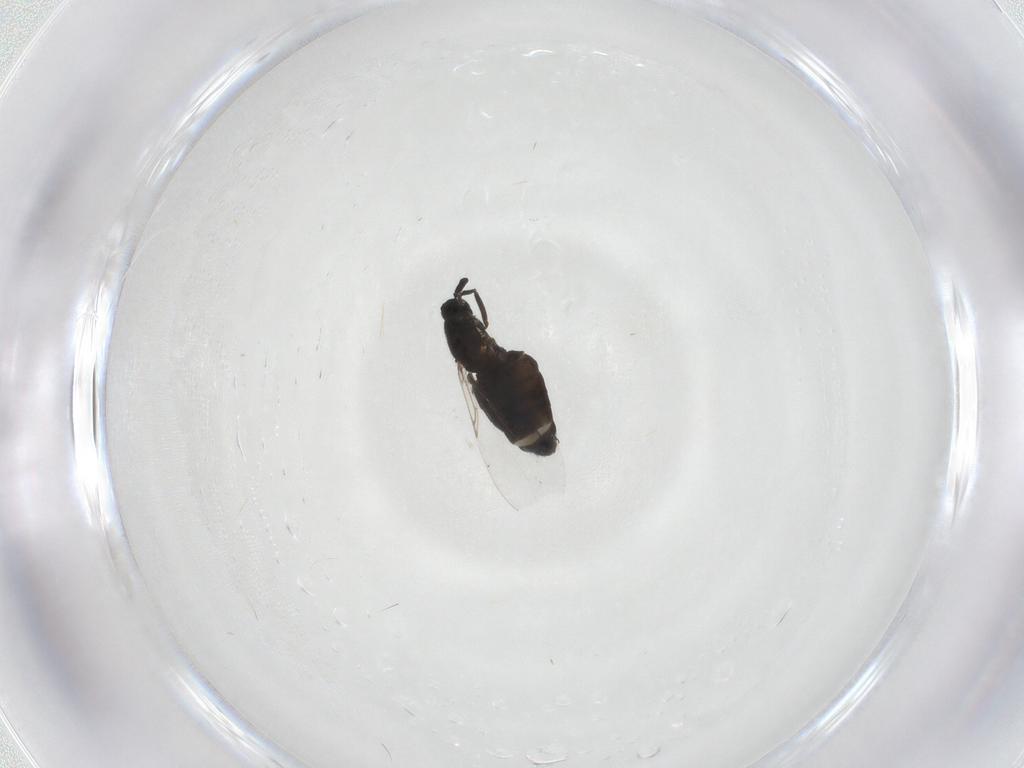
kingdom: Animalia
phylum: Arthropoda
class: Insecta
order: Diptera
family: Scatopsidae
